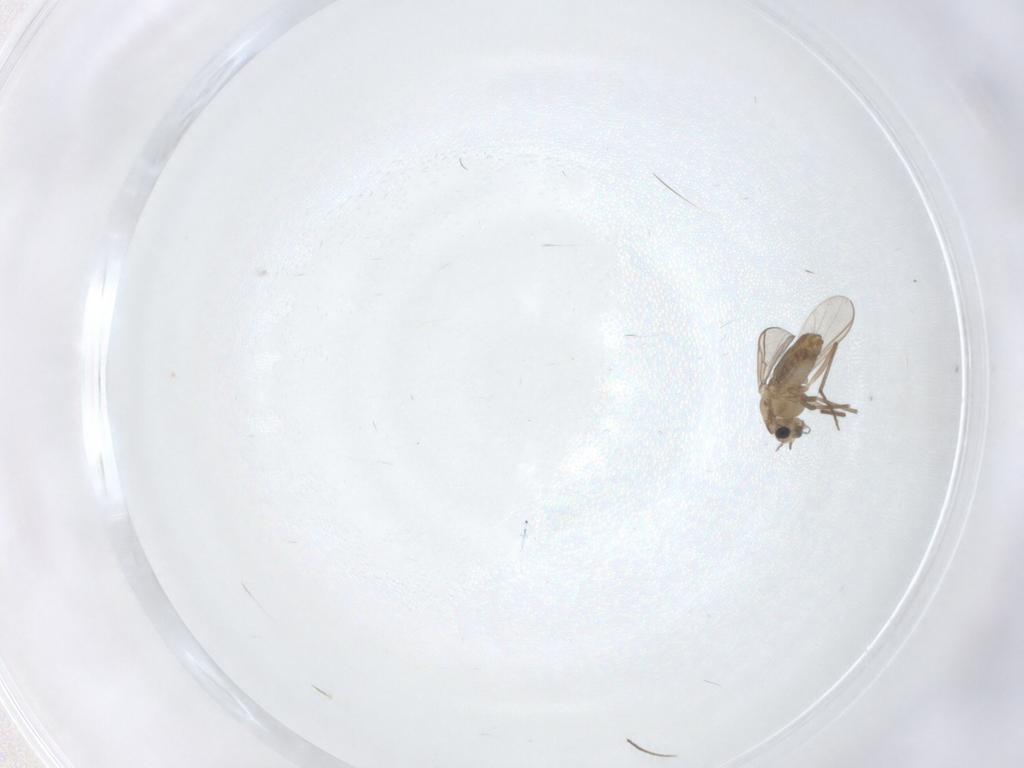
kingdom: Animalia
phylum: Arthropoda
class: Insecta
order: Diptera
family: Chironomidae
